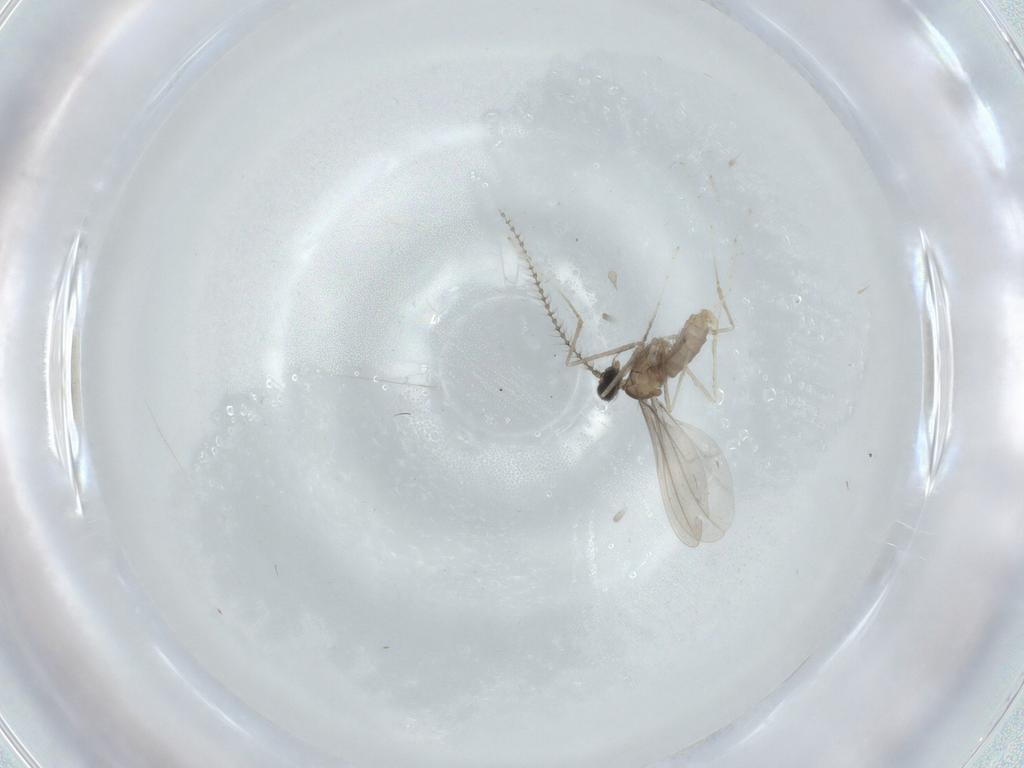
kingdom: Animalia
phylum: Arthropoda
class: Insecta
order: Diptera
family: Cecidomyiidae
